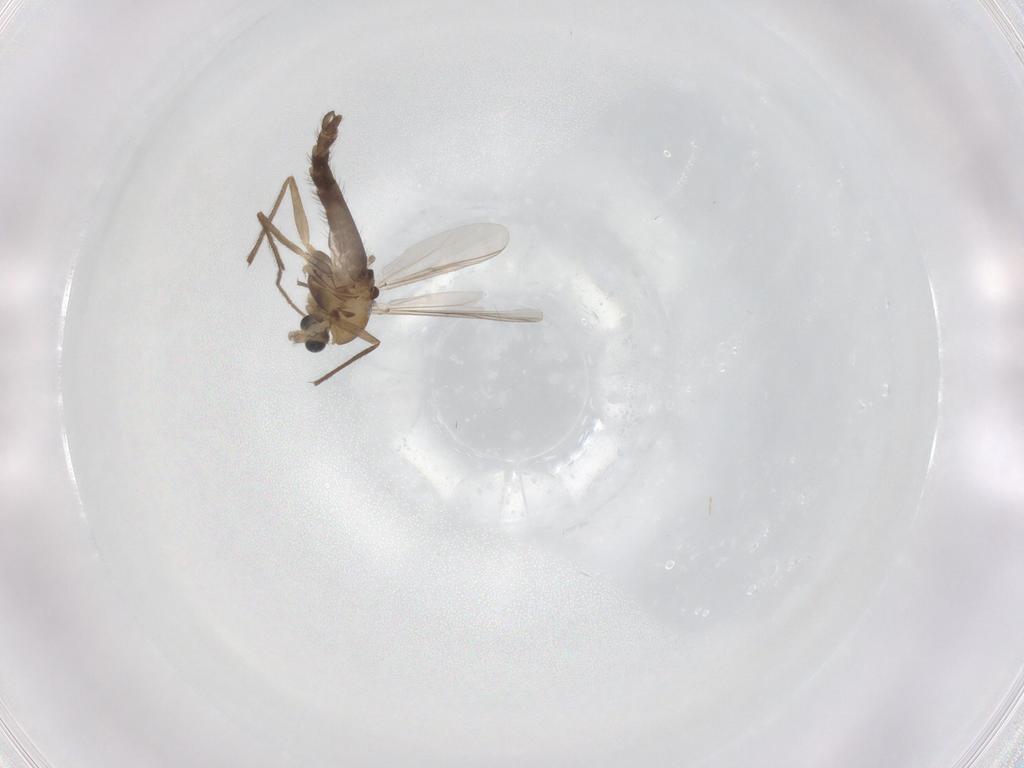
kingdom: Animalia
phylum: Arthropoda
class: Insecta
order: Diptera
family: Chironomidae
